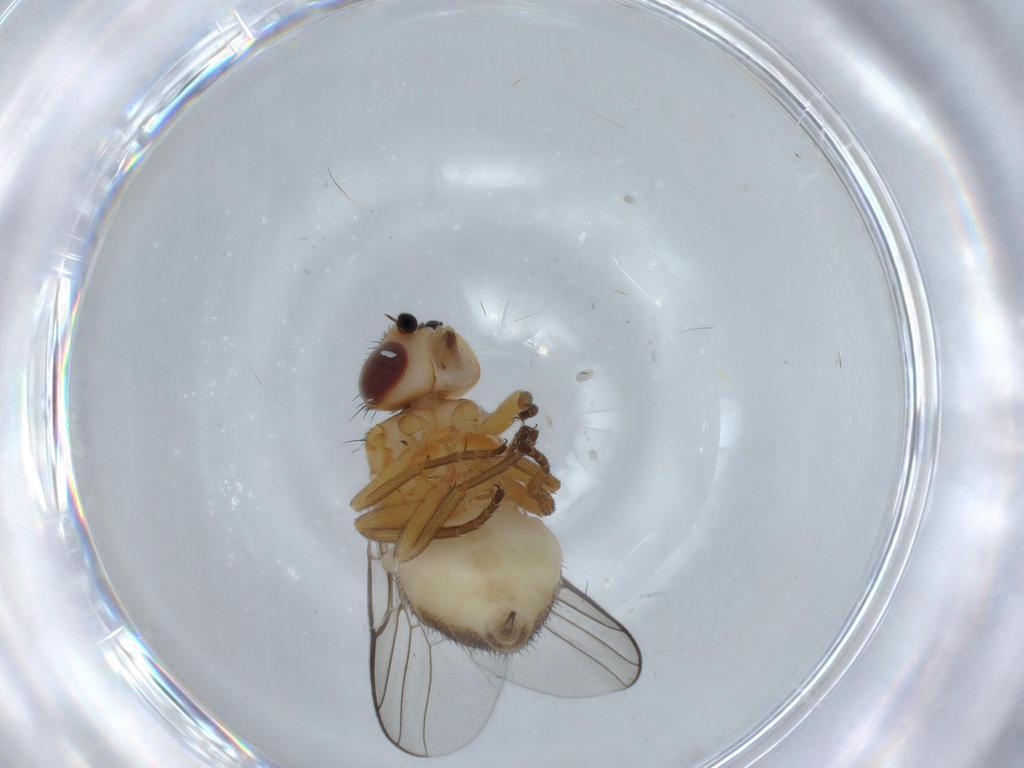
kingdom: Animalia
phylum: Arthropoda
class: Insecta
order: Diptera
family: Chloropidae
